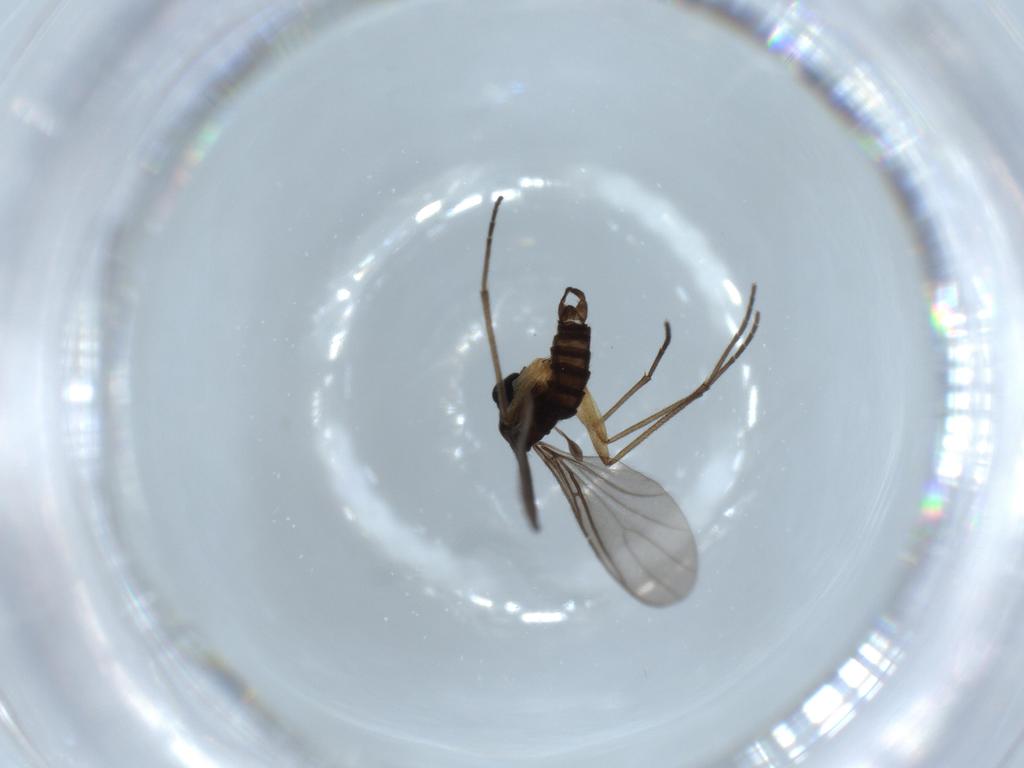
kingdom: Animalia
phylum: Arthropoda
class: Insecta
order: Diptera
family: Sciaridae
